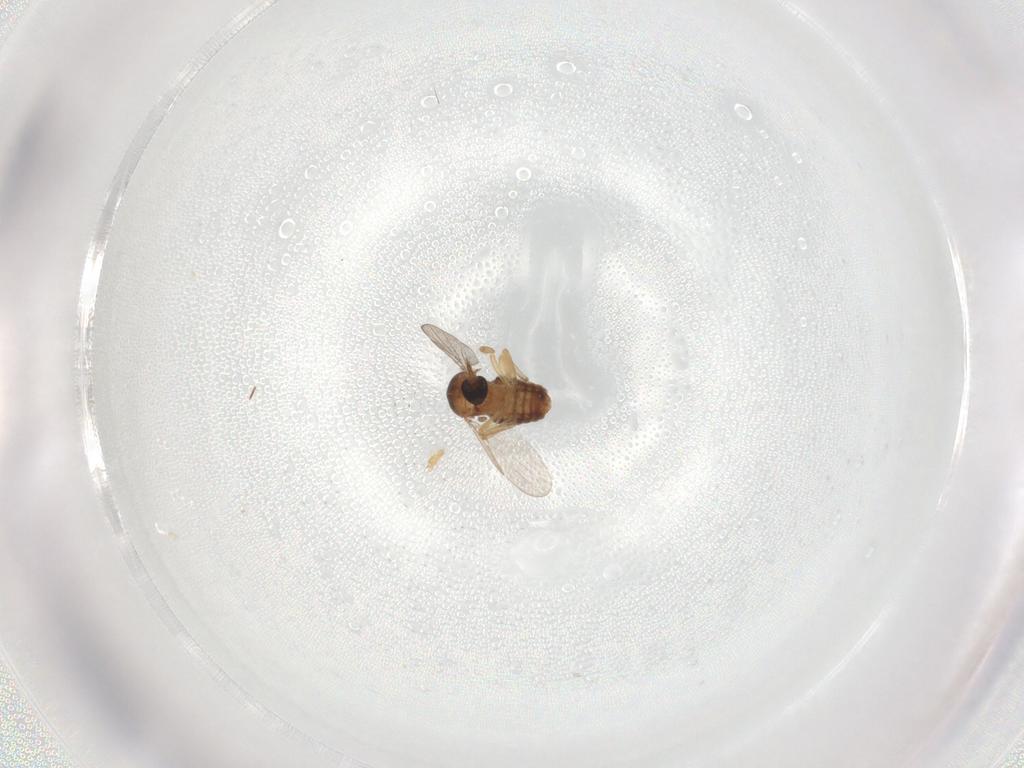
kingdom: Animalia
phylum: Arthropoda
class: Insecta
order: Diptera
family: Ceratopogonidae
